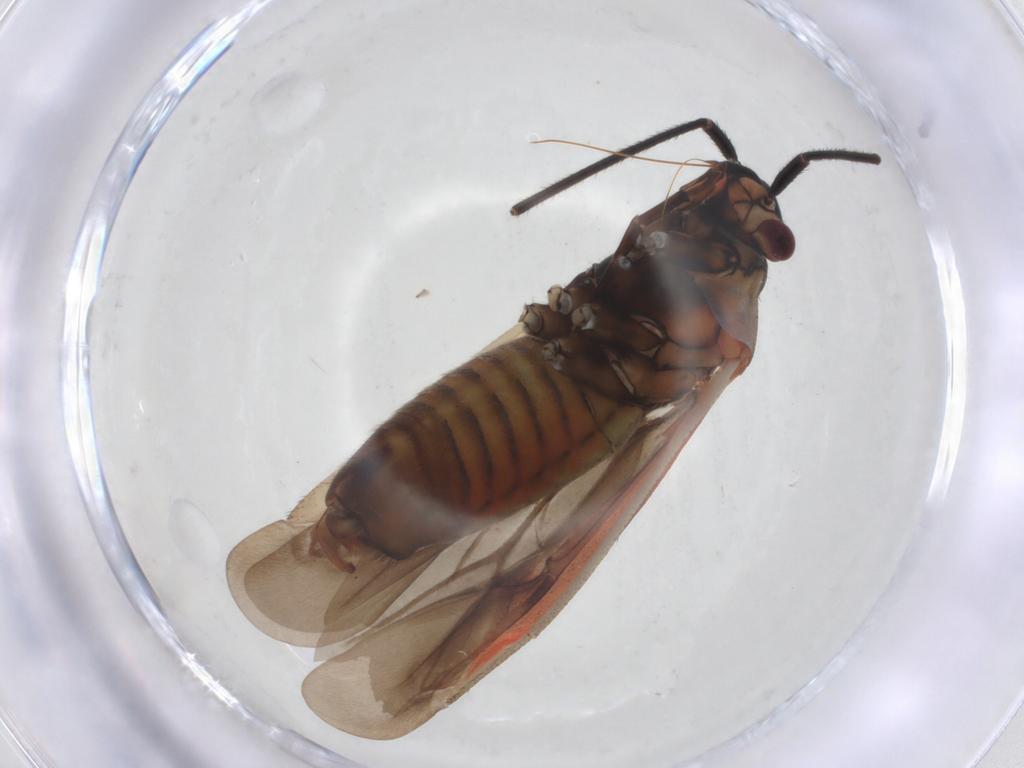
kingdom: Animalia
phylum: Arthropoda
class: Insecta
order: Hemiptera
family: Miridae
